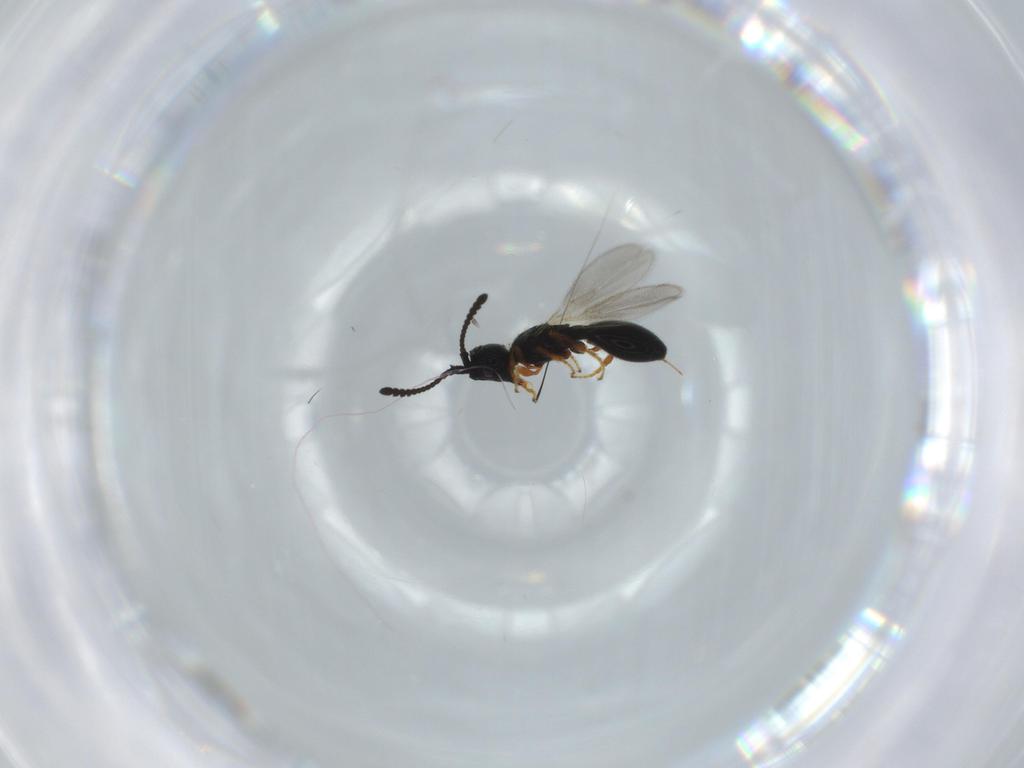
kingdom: Animalia
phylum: Arthropoda
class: Insecta
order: Hymenoptera
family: Diapriidae
